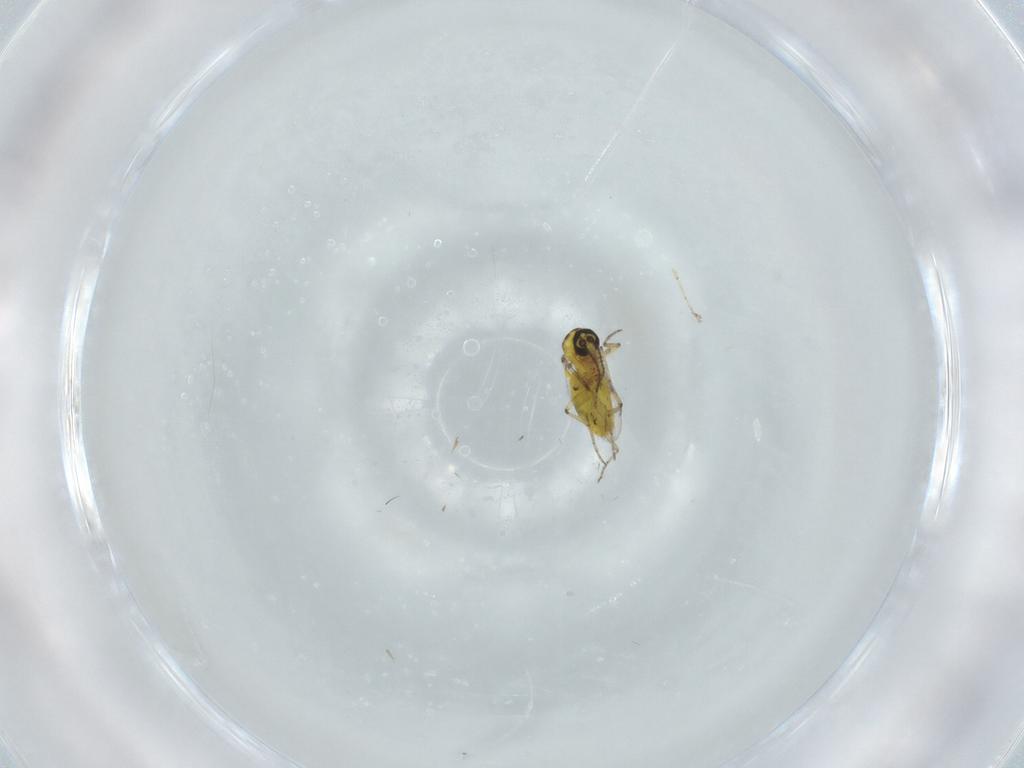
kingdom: Animalia
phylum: Arthropoda
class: Insecta
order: Diptera
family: Ceratopogonidae
